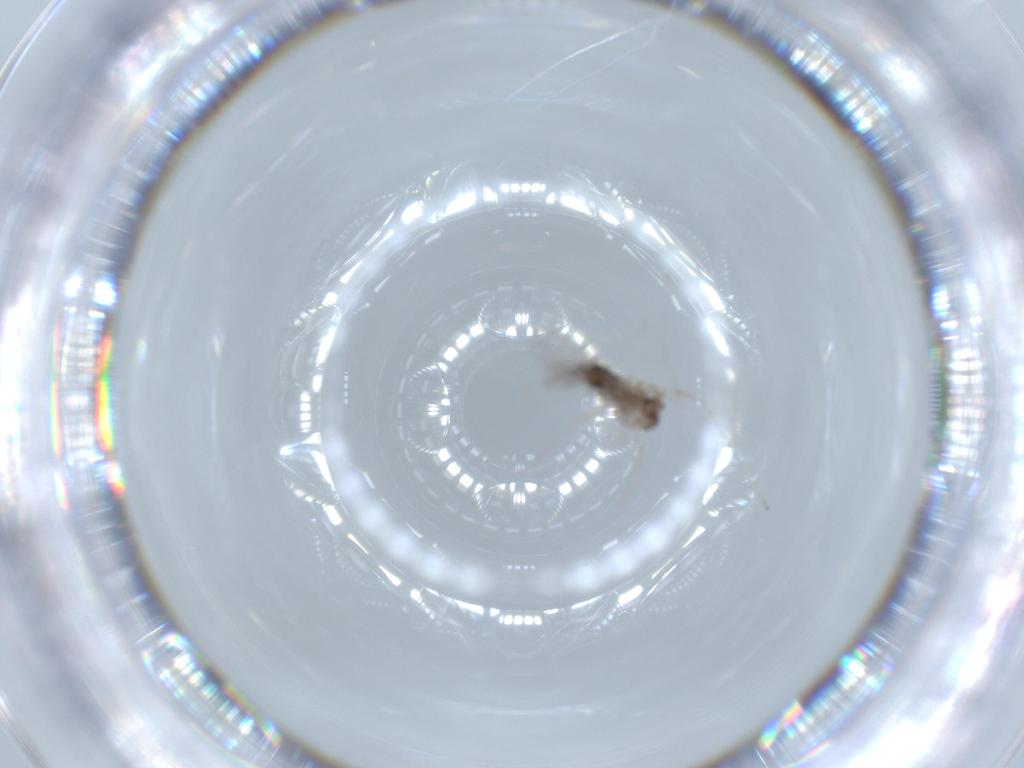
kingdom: Animalia
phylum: Arthropoda
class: Insecta
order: Diptera
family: Cecidomyiidae
